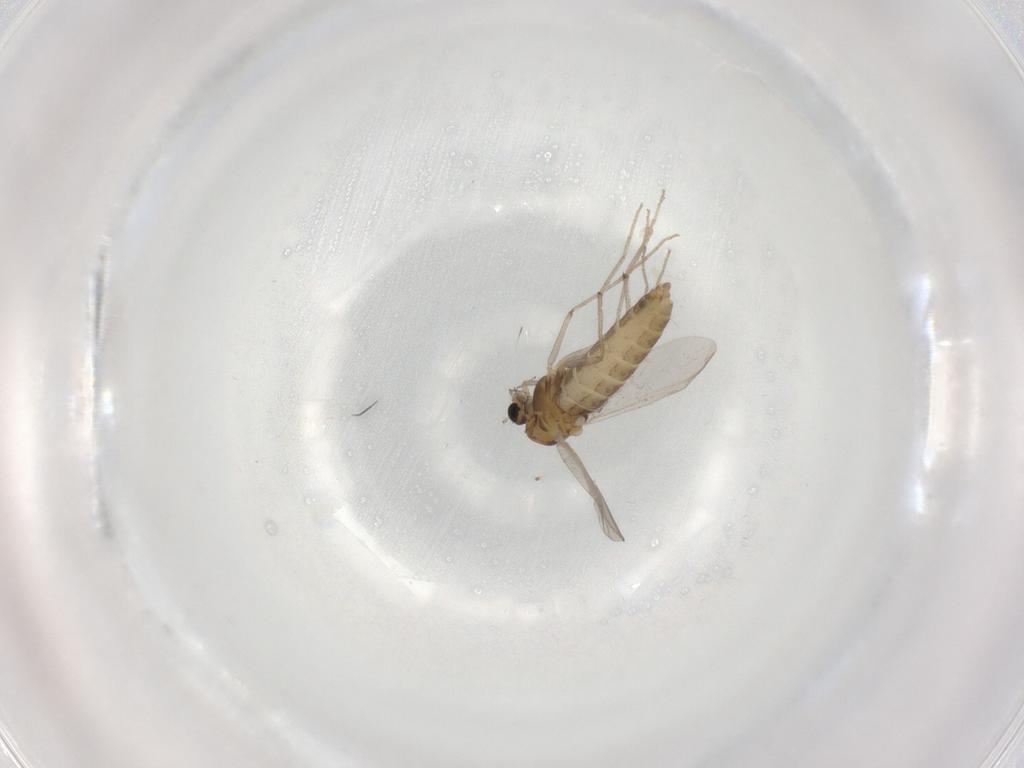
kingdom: Animalia
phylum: Arthropoda
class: Insecta
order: Diptera
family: Chironomidae
